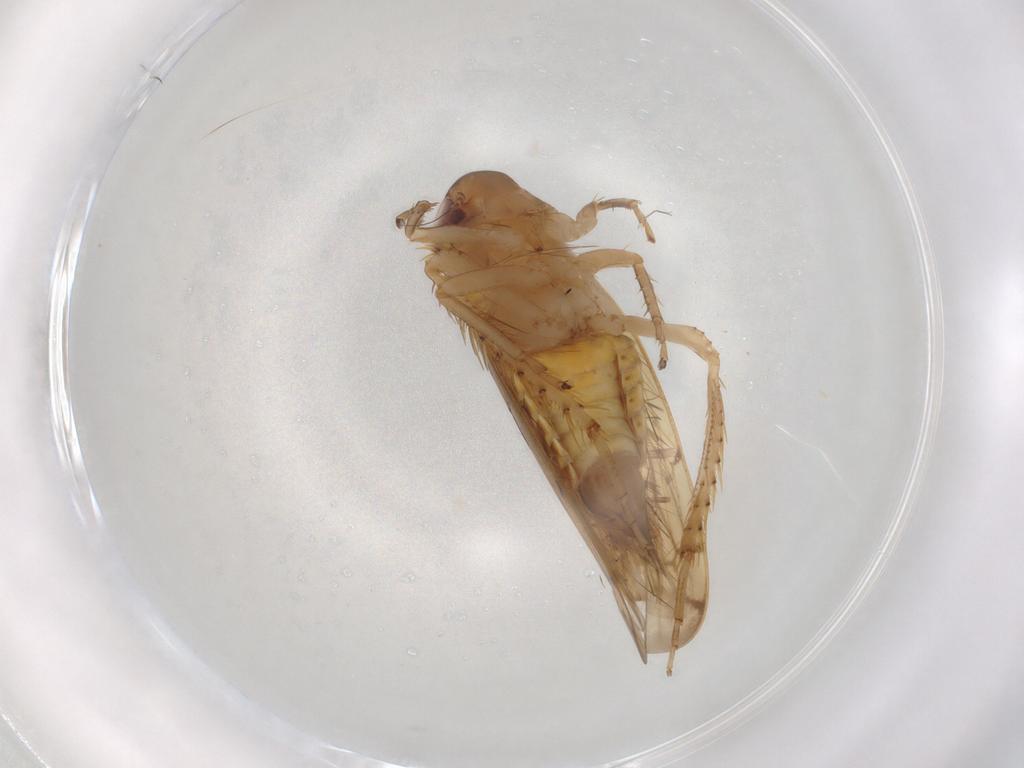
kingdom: Animalia
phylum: Arthropoda
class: Insecta
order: Hemiptera
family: Cicadellidae
